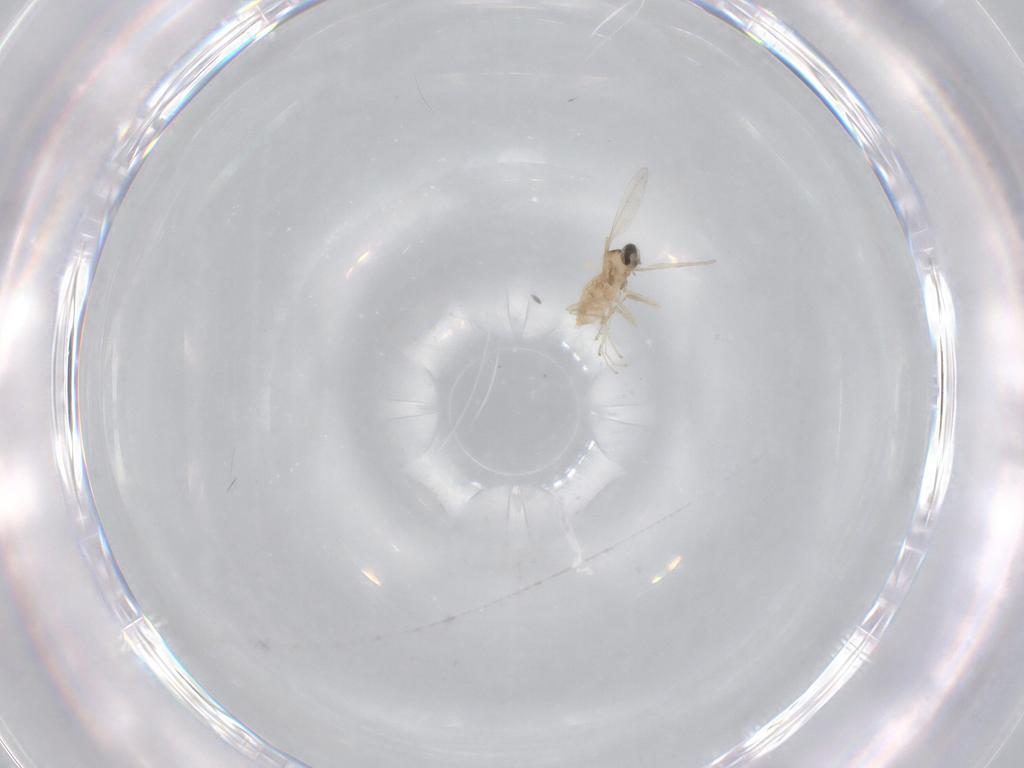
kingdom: Animalia
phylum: Arthropoda
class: Insecta
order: Diptera
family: Cecidomyiidae
